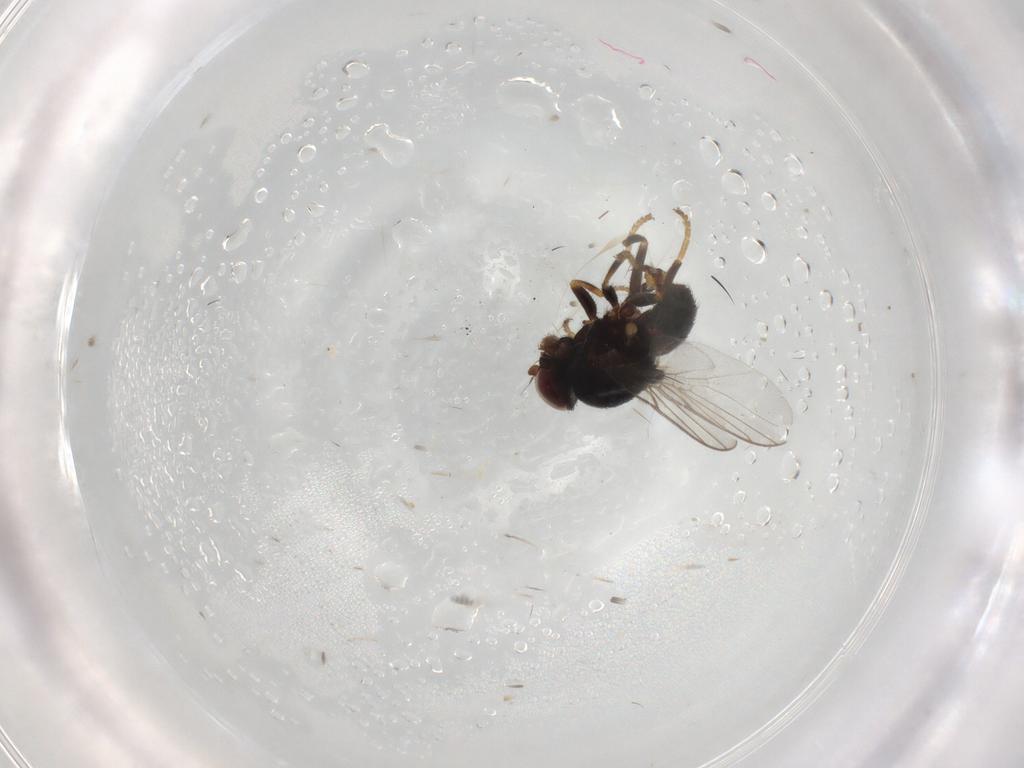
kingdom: Animalia
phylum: Arthropoda
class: Insecta
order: Diptera
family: Chloropidae
